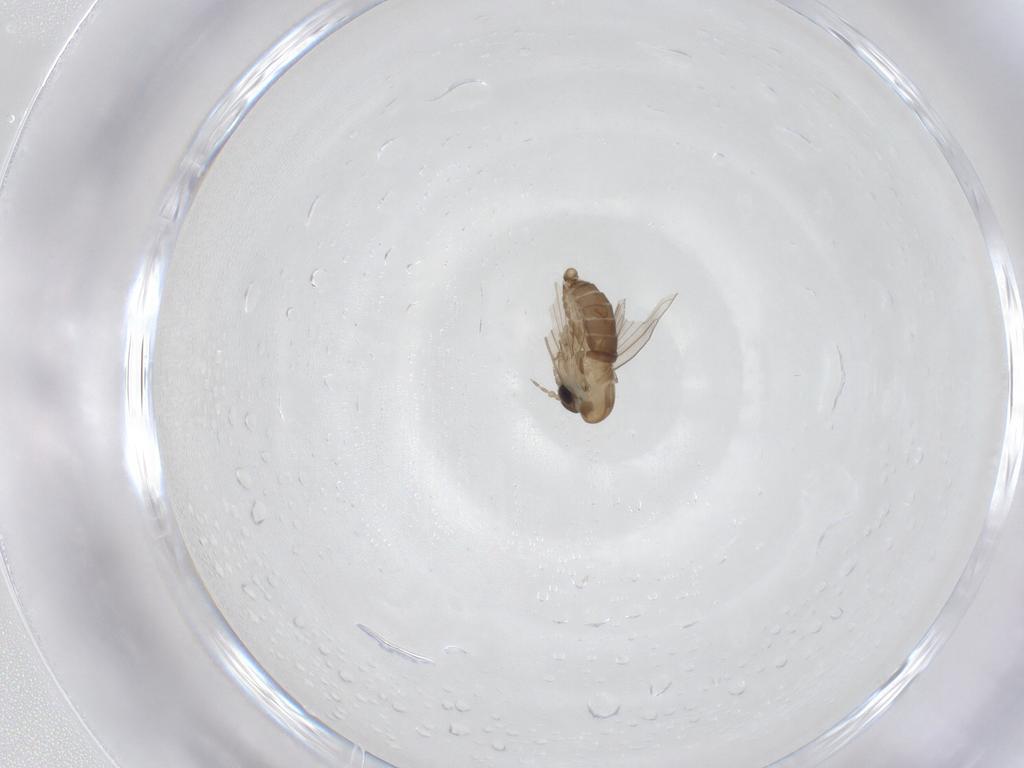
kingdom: Animalia
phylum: Arthropoda
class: Insecta
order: Diptera
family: Psychodidae
